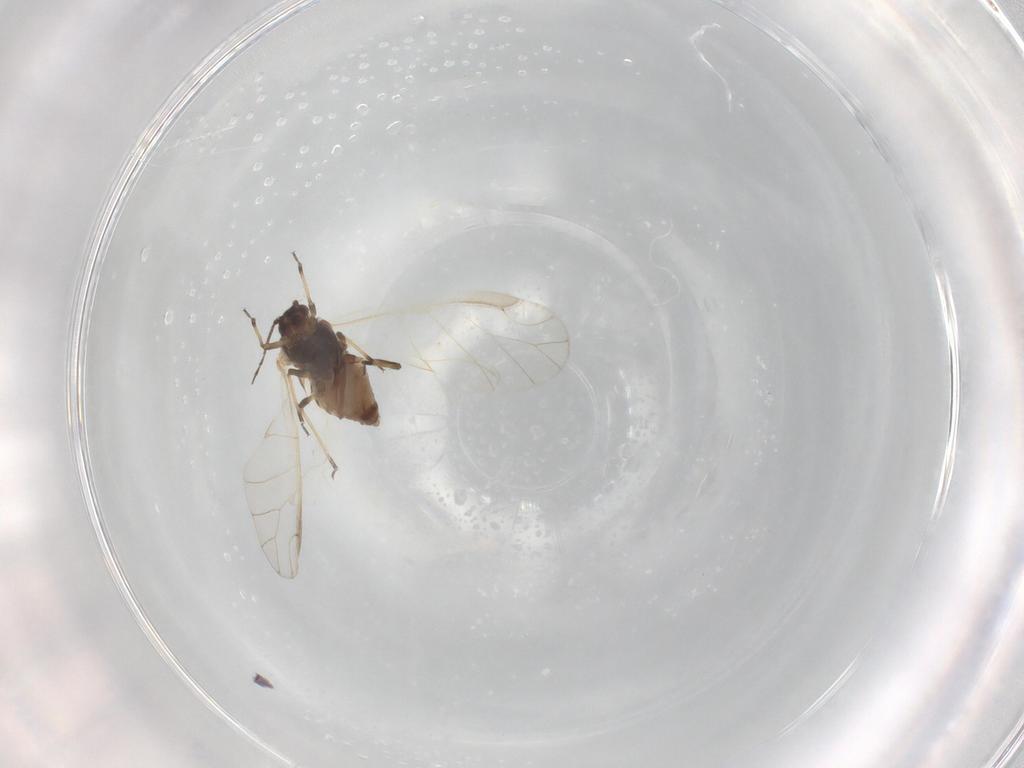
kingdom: Animalia
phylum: Arthropoda
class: Insecta
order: Hemiptera
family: Aphididae
